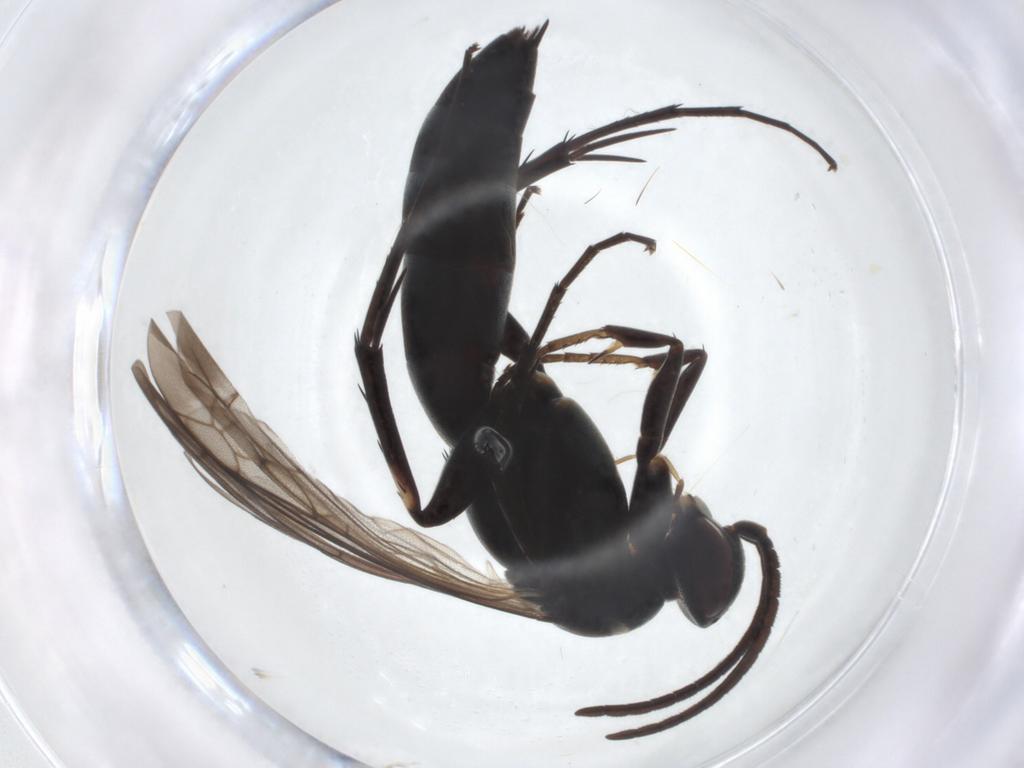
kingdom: Animalia
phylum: Arthropoda
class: Insecta
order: Hymenoptera
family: Pompilidae
